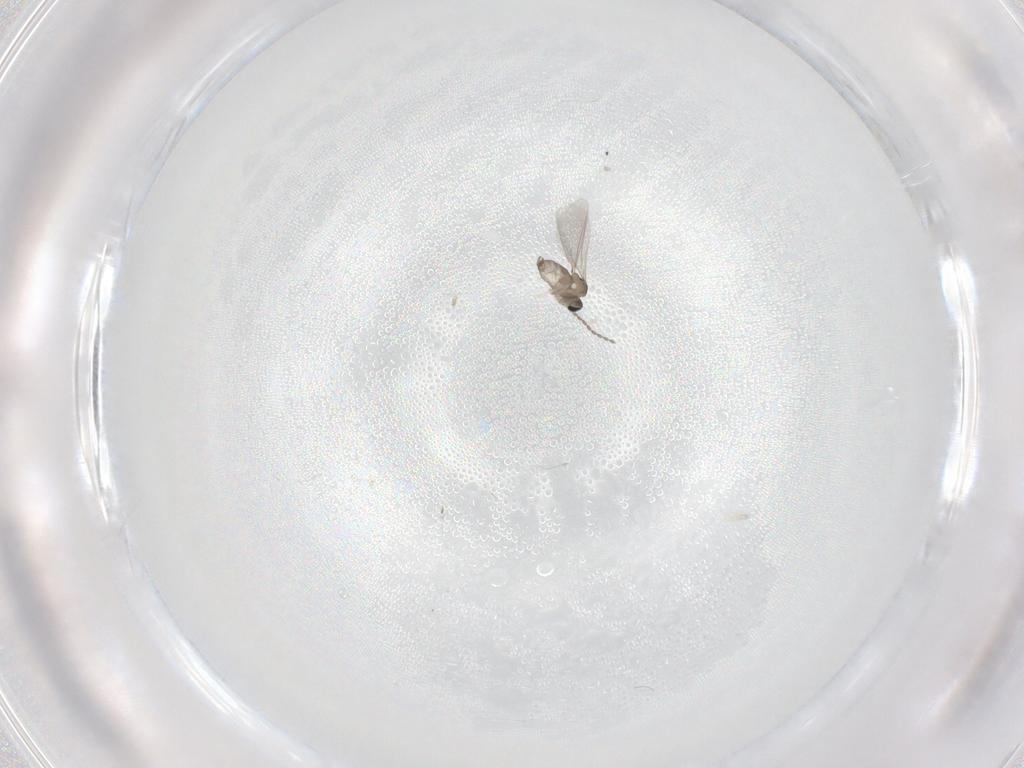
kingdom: Animalia
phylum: Arthropoda
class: Insecta
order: Diptera
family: Cecidomyiidae
